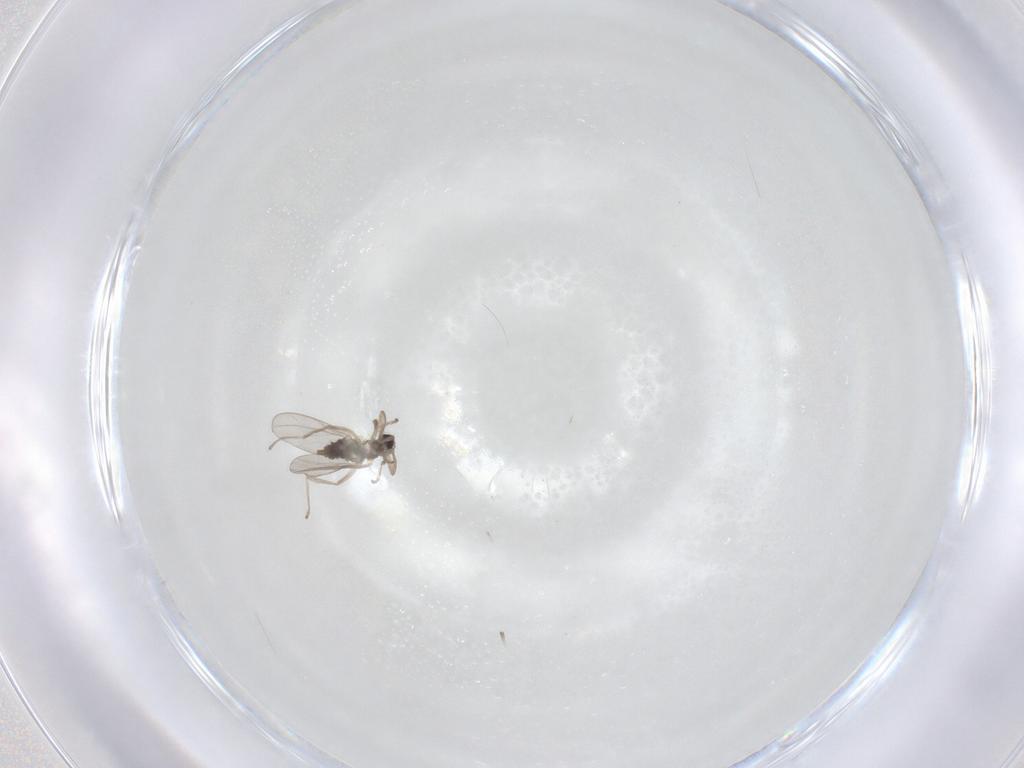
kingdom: Animalia
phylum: Arthropoda
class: Insecta
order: Diptera
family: Cecidomyiidae
